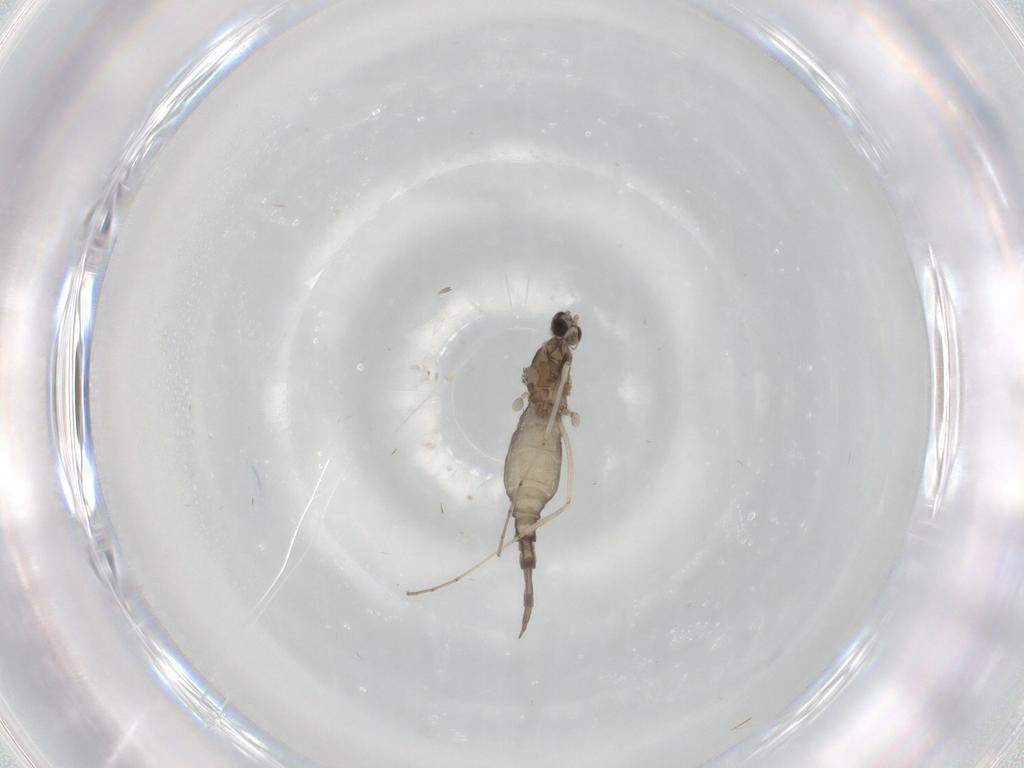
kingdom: Animalia
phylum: Arthropoda
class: Insecta
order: Diptera
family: Cecidomyiidae
